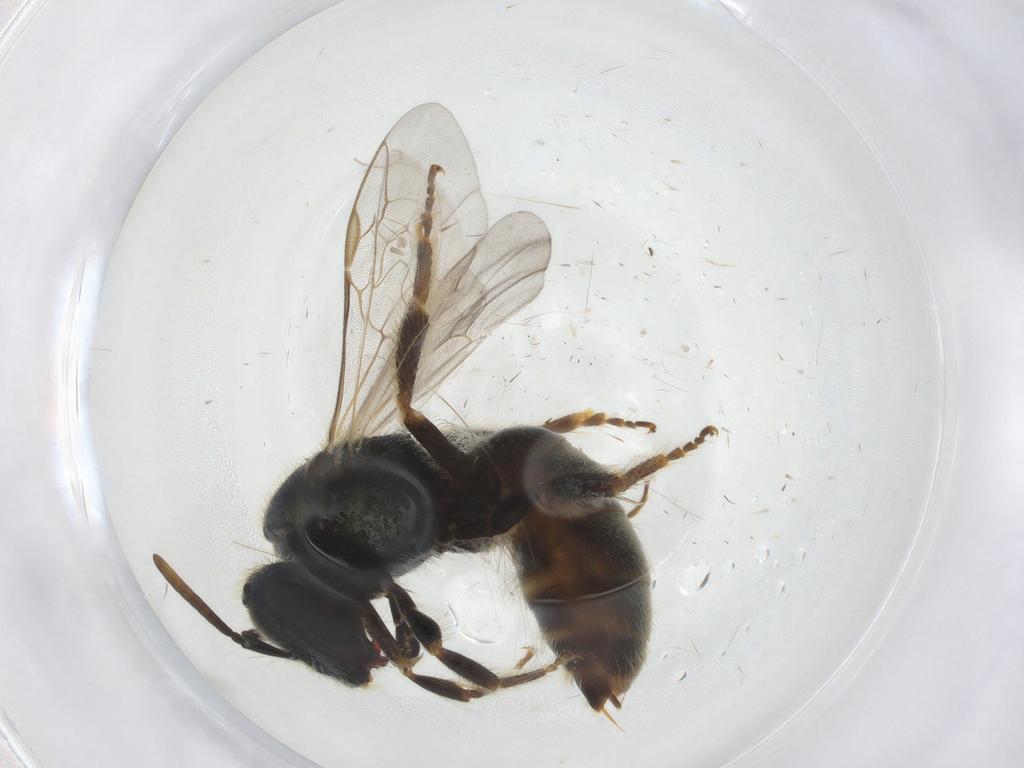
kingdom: Animalia
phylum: Arthropoda
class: Insecta
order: Hymenoptera
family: Halictidae
